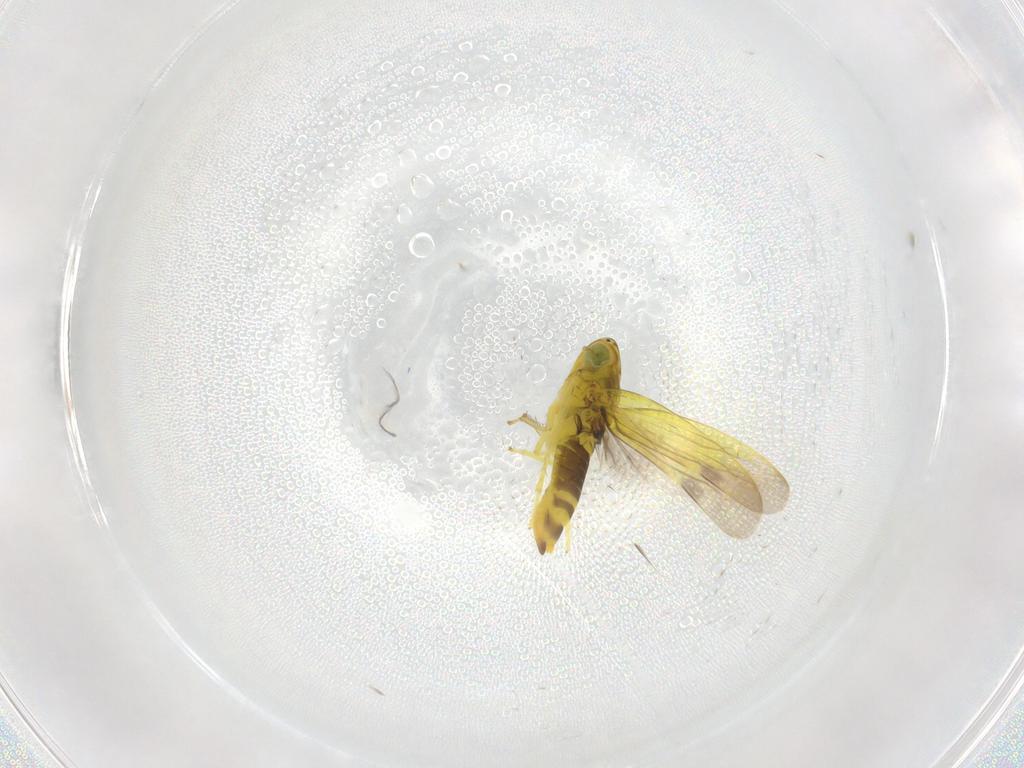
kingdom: Animalia
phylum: Arthropoda
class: Insecta
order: Hemiptera
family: Cicadellidae
